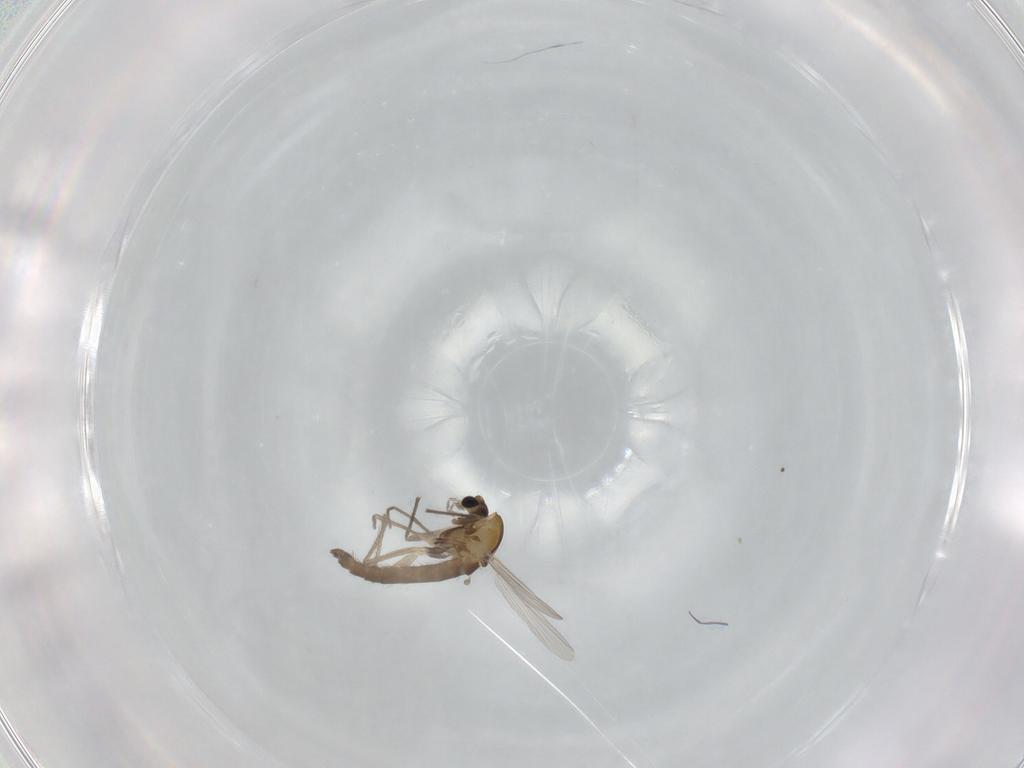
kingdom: Animalia
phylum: Arthropoda
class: Insecta
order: Diptera
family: Chironomidae
